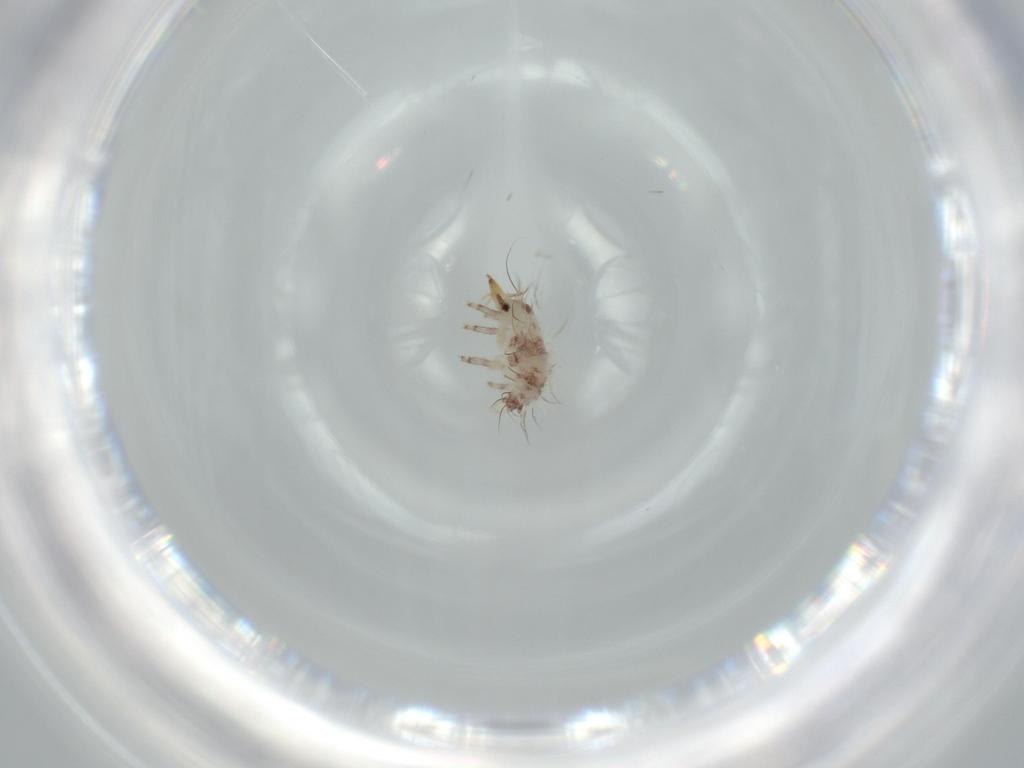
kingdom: Animalia
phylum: Arthropoda
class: Insecta
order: Neuroptera
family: Chrysopidae
